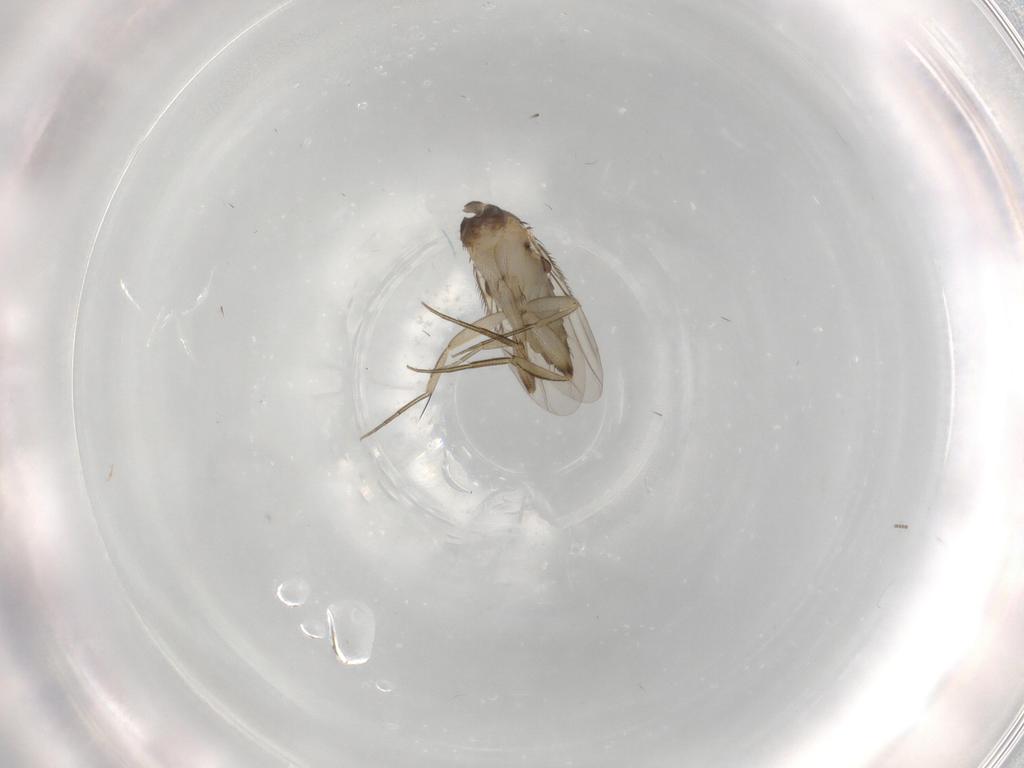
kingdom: Animalia
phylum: Arthropoda
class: Insecta
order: Diptera
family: Phoridae
